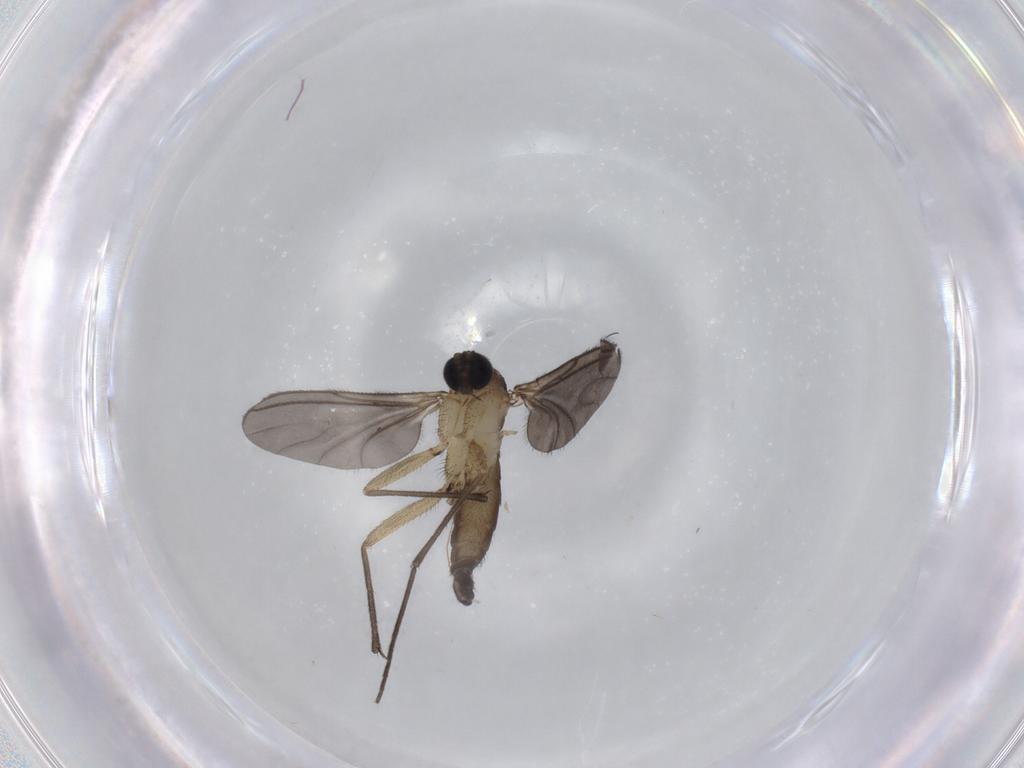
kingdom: Animalia
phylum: Arthropoda
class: Insecta
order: Diptera
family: Sciaridae
